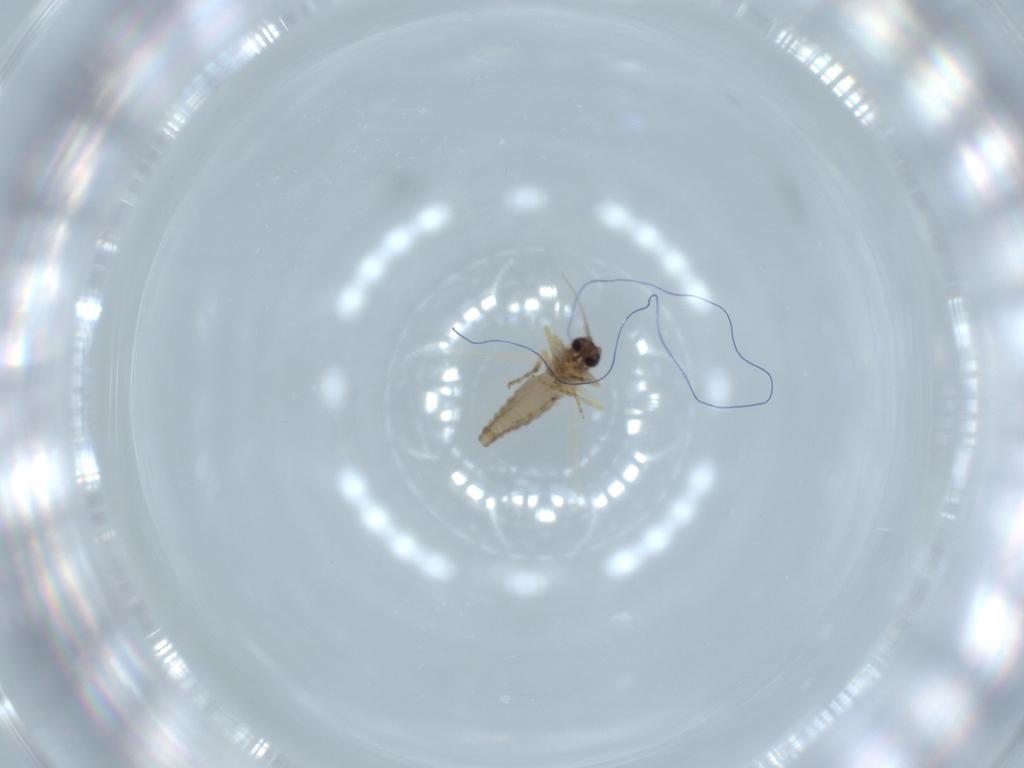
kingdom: Animalia
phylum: Arthropoda
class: Insecta
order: Diptera
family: Ceratopogonidae
